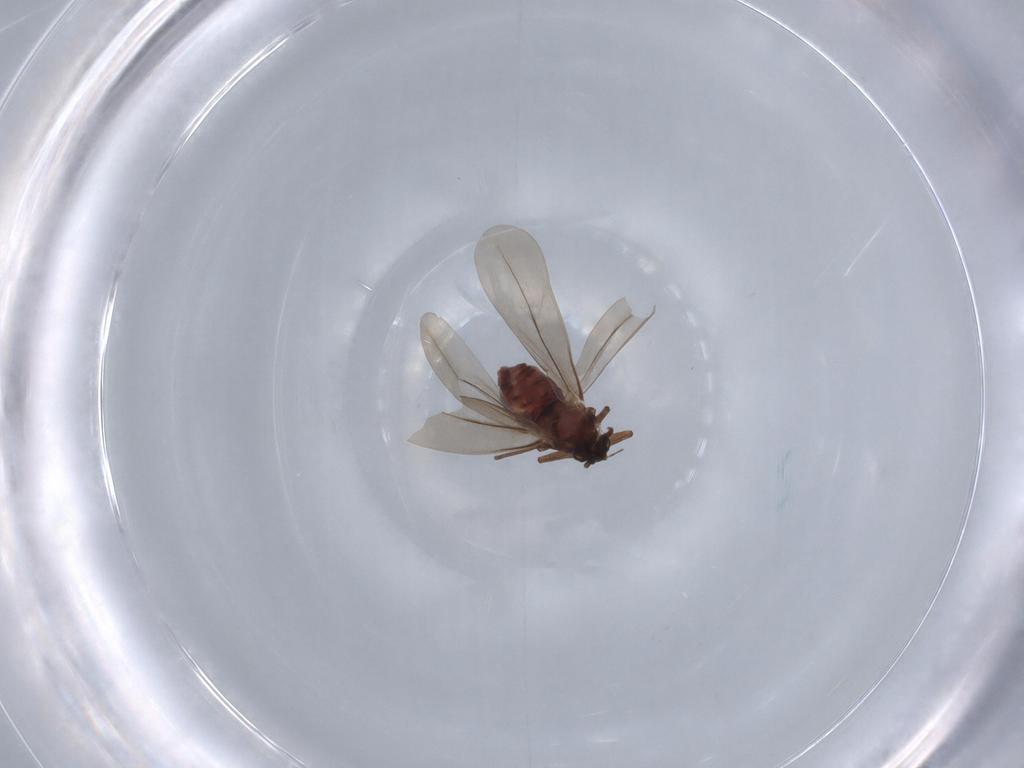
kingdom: Animalia
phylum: Arthropoda
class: Insecta
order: Hemiptera
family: Aleyrodidae
